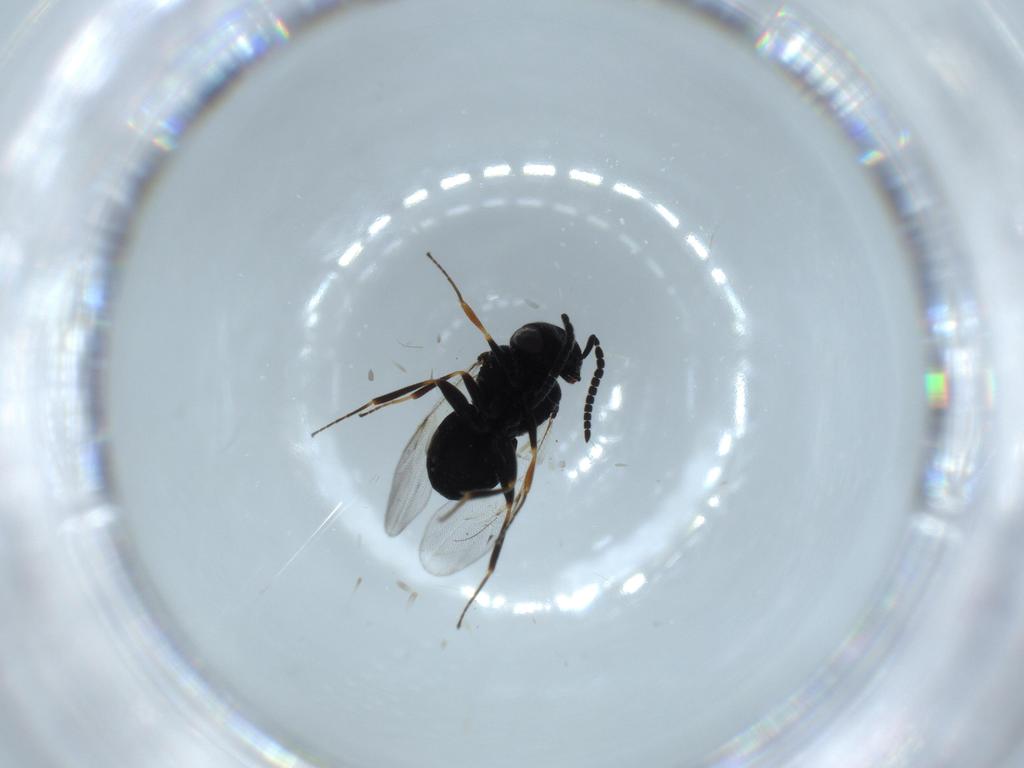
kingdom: Animalia
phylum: Arthropoda
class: Insecta
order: Hymenoptera
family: Scelionidae
